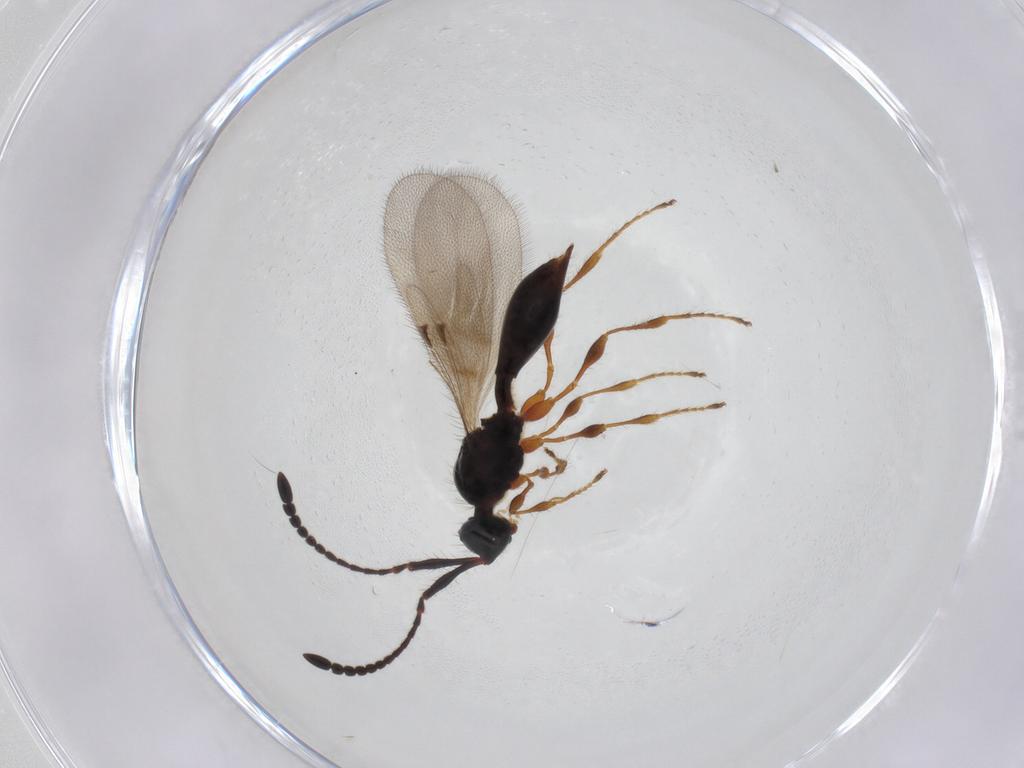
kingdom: Animalia
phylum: Arthropoda
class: Insecta
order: Hymenoptera
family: Diapriidae
